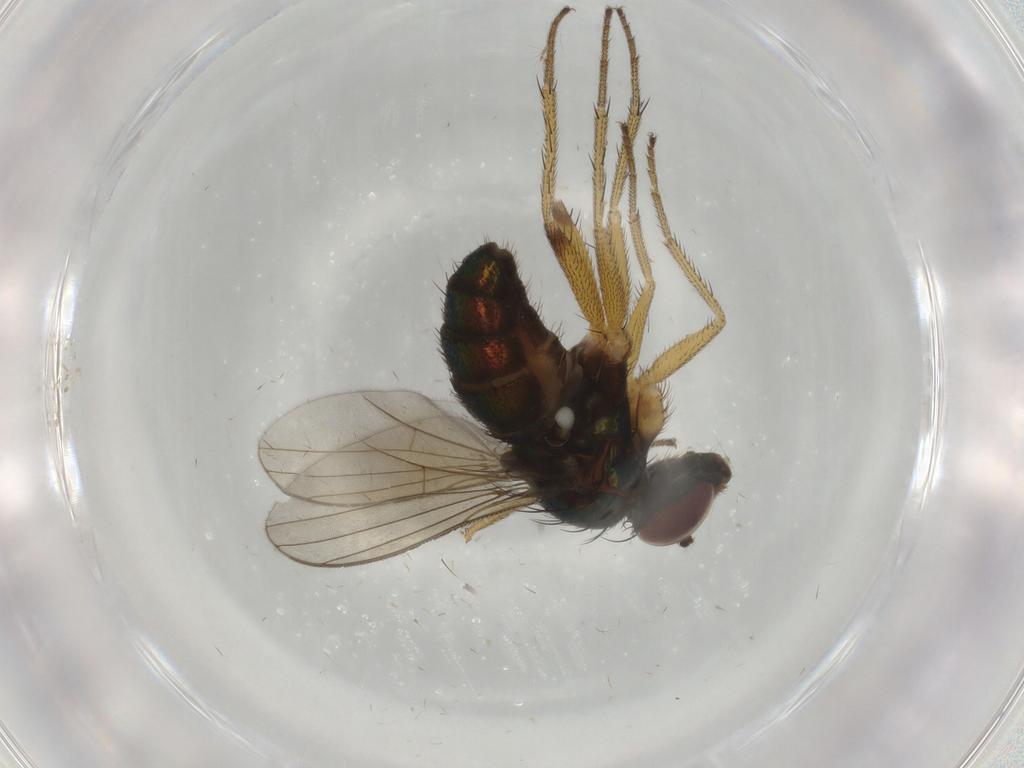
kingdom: Animalia
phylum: Arthropoda
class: Insecta
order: Diptera
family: Dolichopodidae
